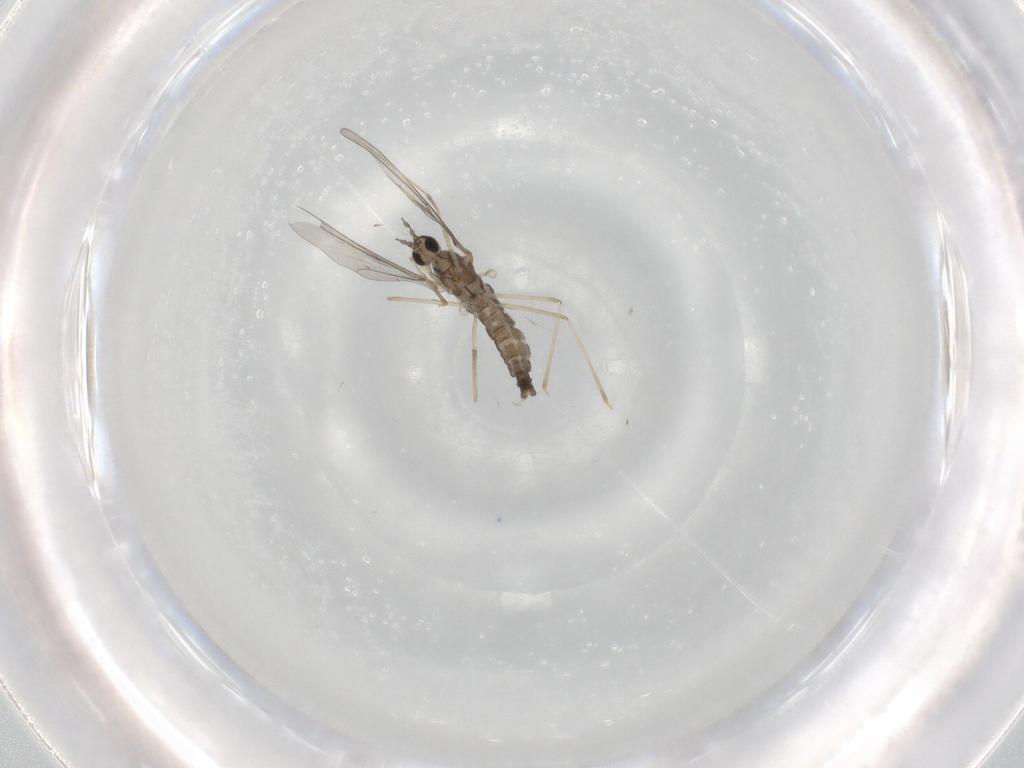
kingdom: Animalia
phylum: Arthropoda
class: Insecta
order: Diptera
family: Cecidomyiidae
